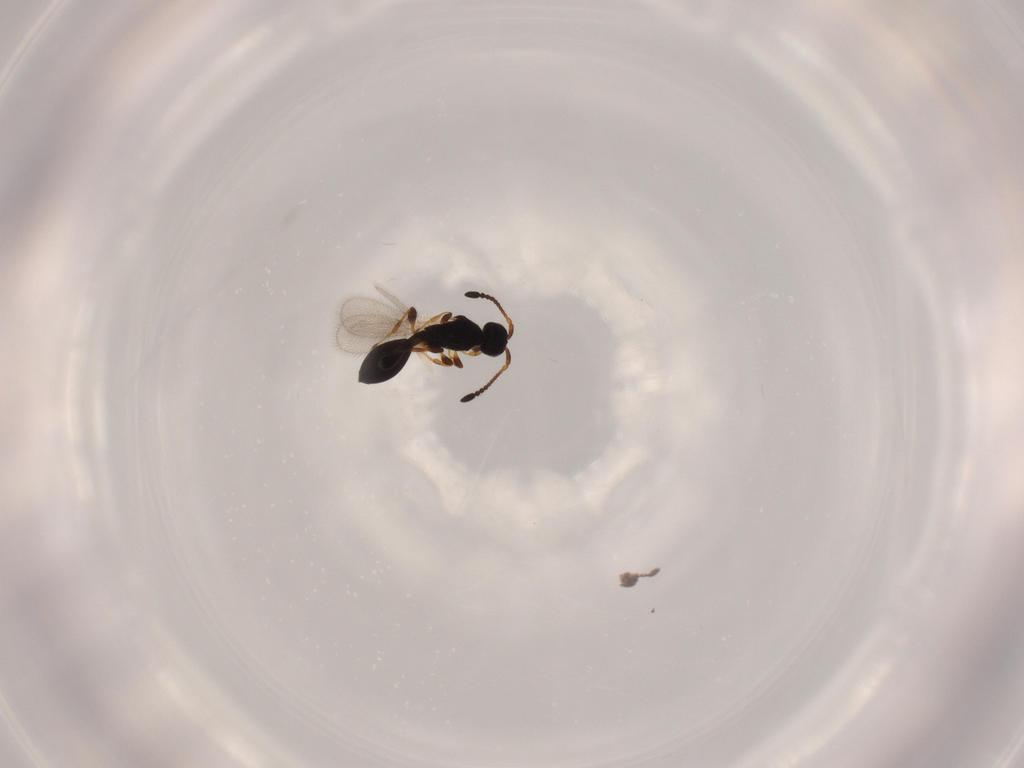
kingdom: Animalia
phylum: Arthropoda
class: Insecta
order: Hymenoptera
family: Diapriidae
